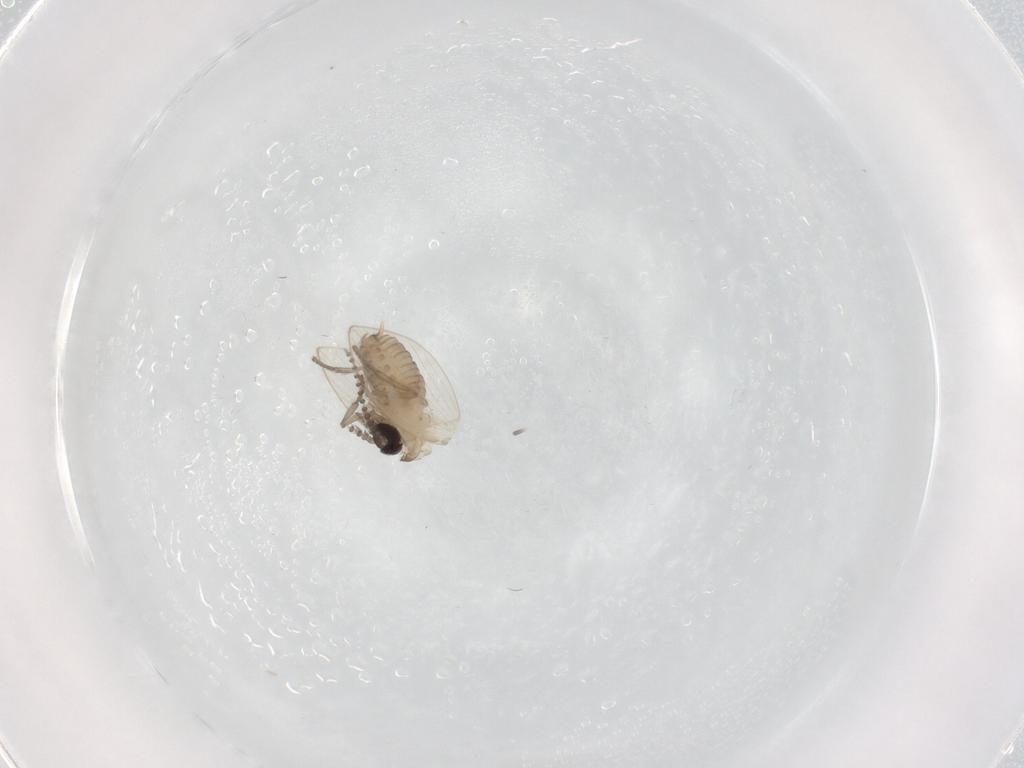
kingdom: Animalia
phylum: Arthropoda
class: Insecta
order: Diptera
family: Psychodidae
